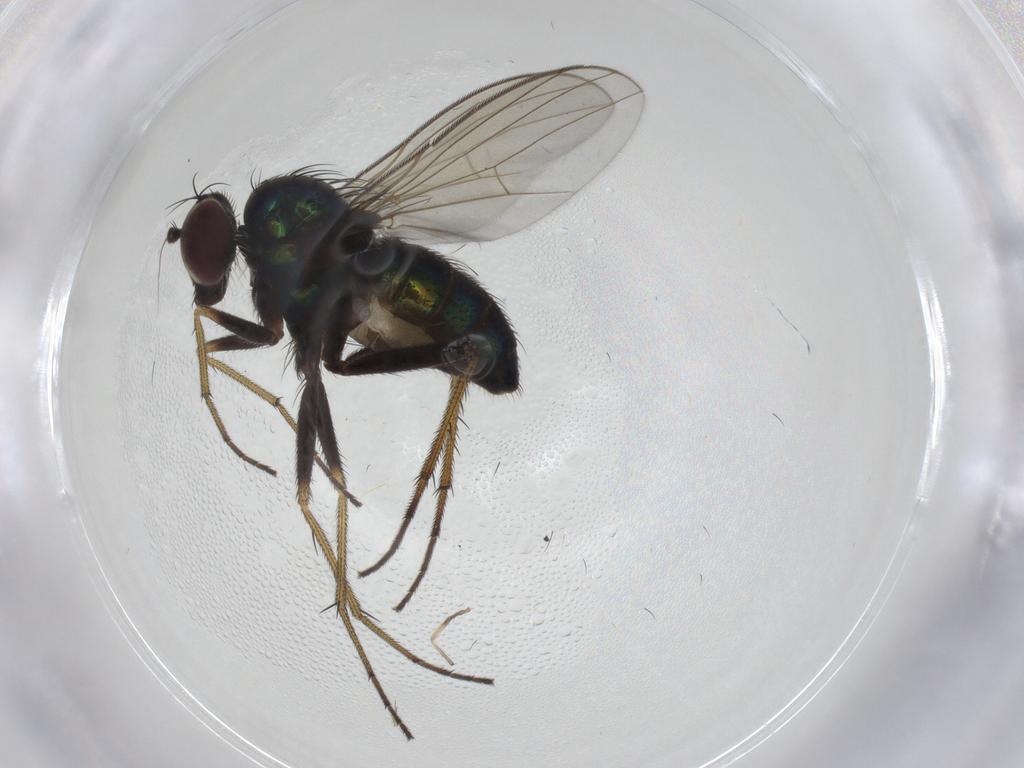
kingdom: Animalia
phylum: Arthropoda
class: Insecta
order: Diptera
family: Dolichopodidae
